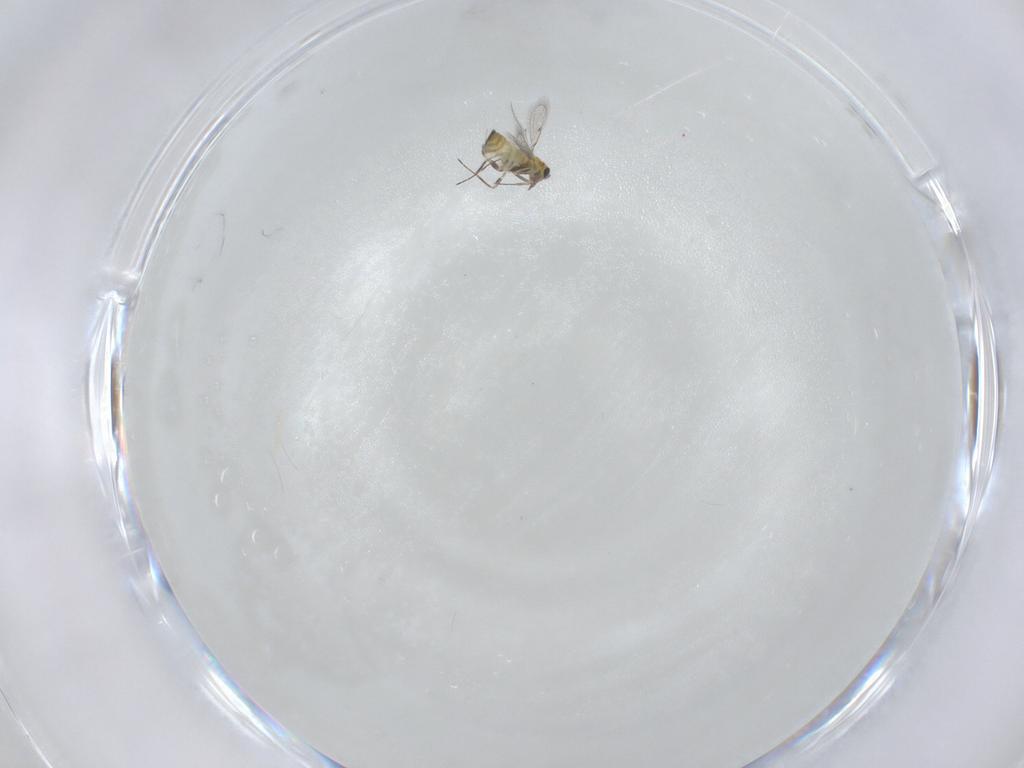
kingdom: Animalia
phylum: Arthropoda
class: Insecta
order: Hymenoptera
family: Trichogrammatidae
